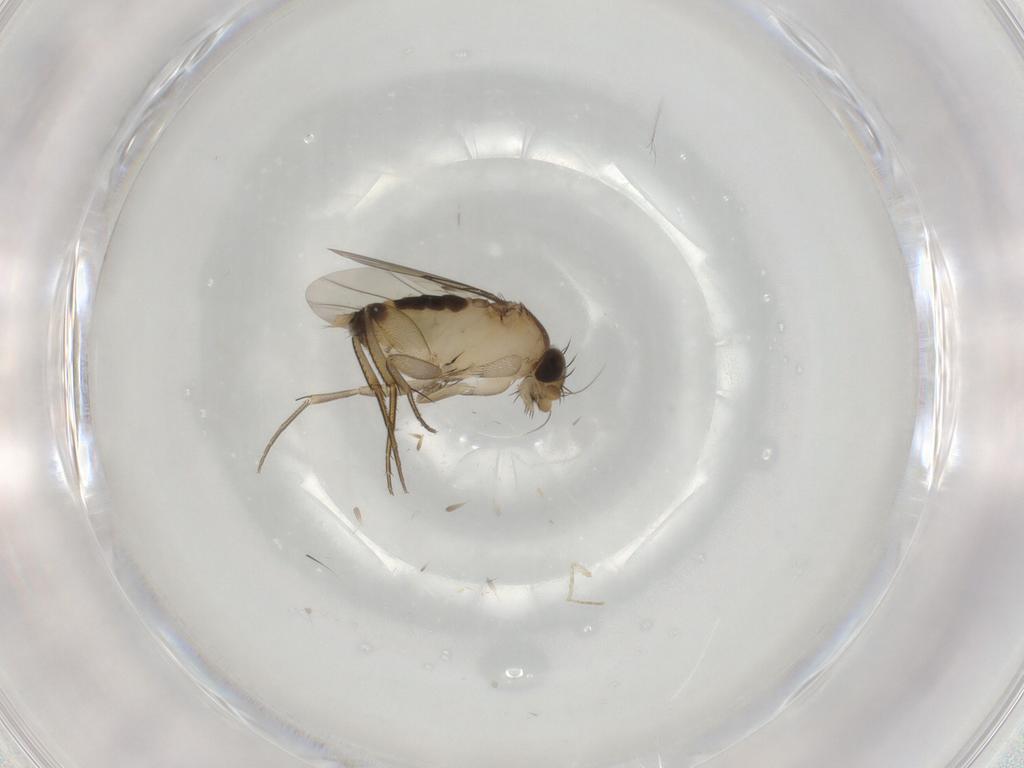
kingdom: Animalia
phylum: Arthropoda
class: Insecta
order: Diptera
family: Phoridae
